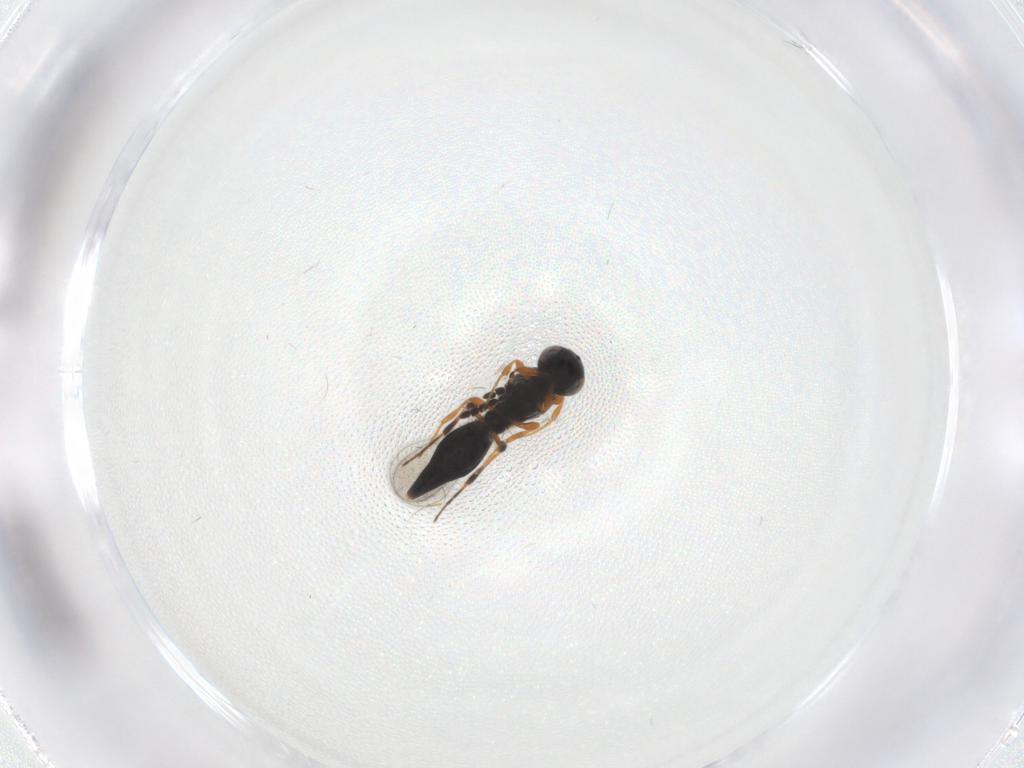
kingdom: Animalia
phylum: Arthropoda
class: Insecta
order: Hymenoptera
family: Platygastridae
